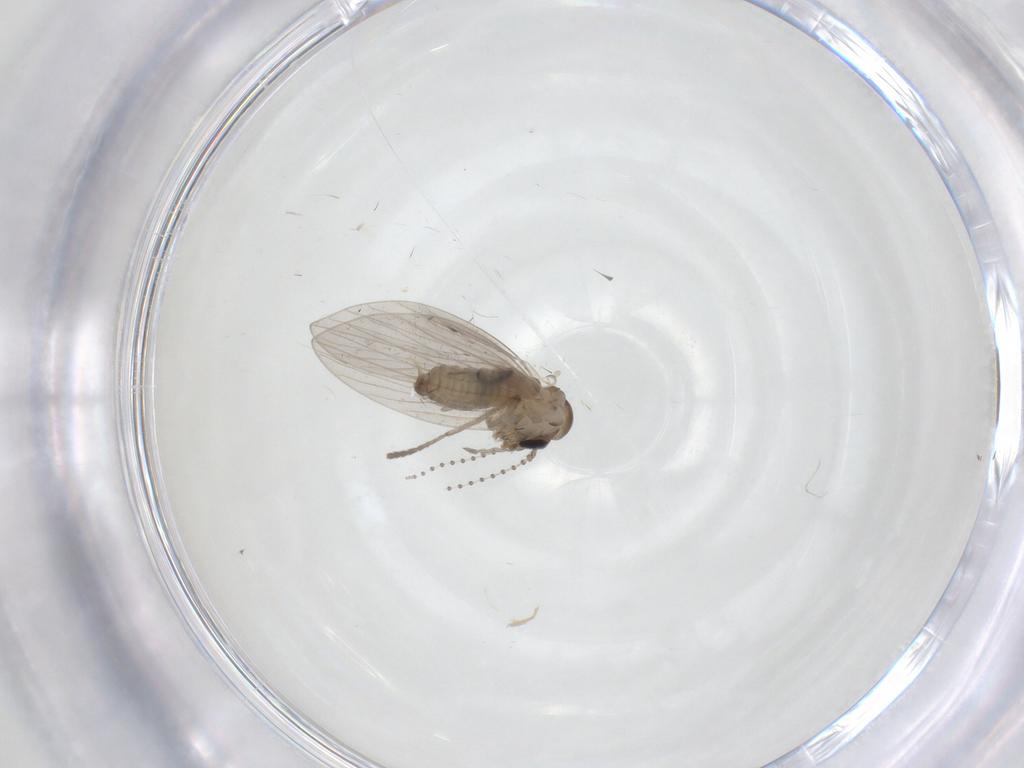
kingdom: Animalia
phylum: Arthropoda
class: Insecta
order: Diptera
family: Psychodidae
